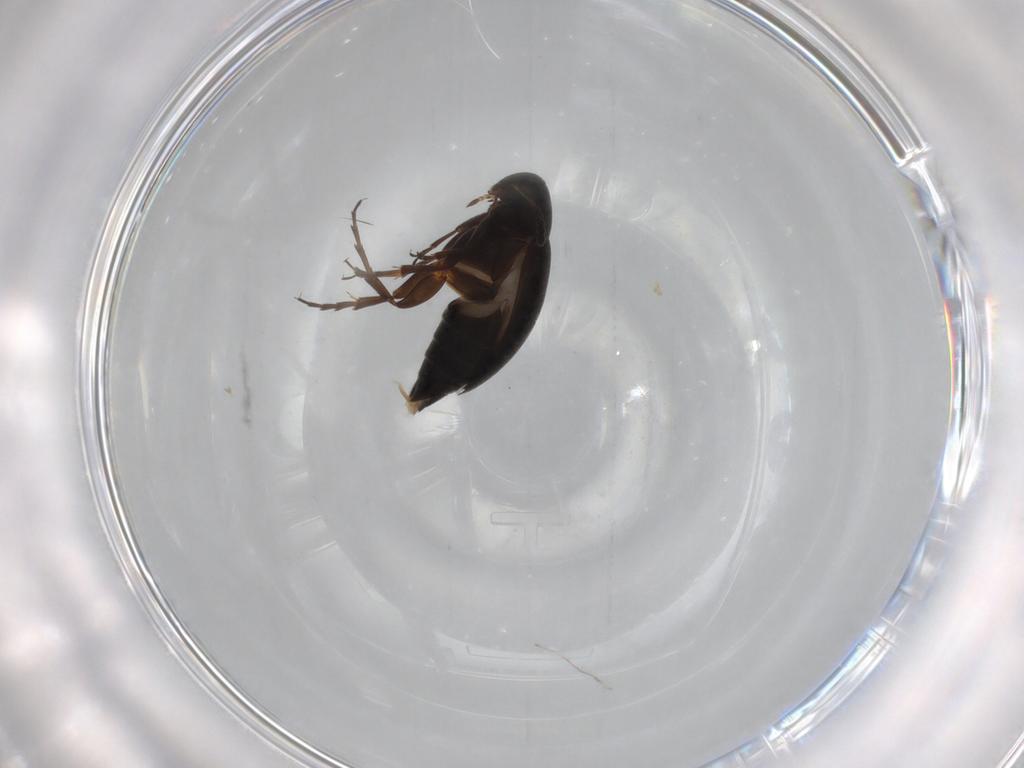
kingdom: Animalia
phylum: Arthropoda
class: Insecta
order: Coleoptera
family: Scraptiidae
